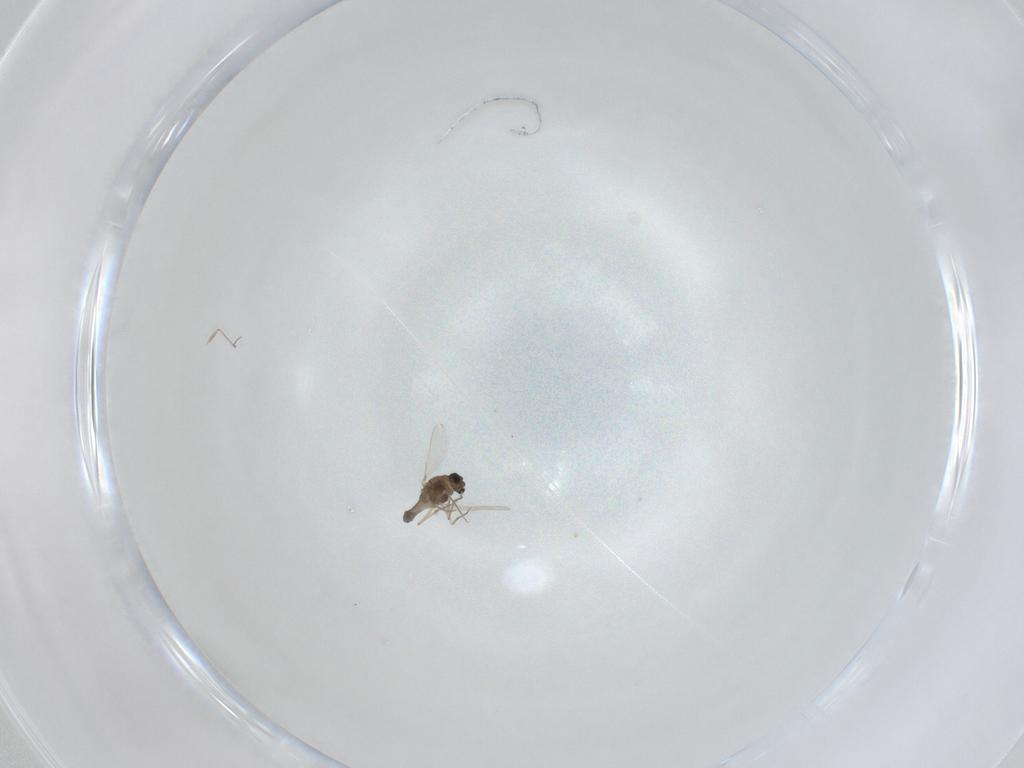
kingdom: Animalia
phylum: Arthropoda
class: Insecta
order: Diptera
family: Chironomidae
